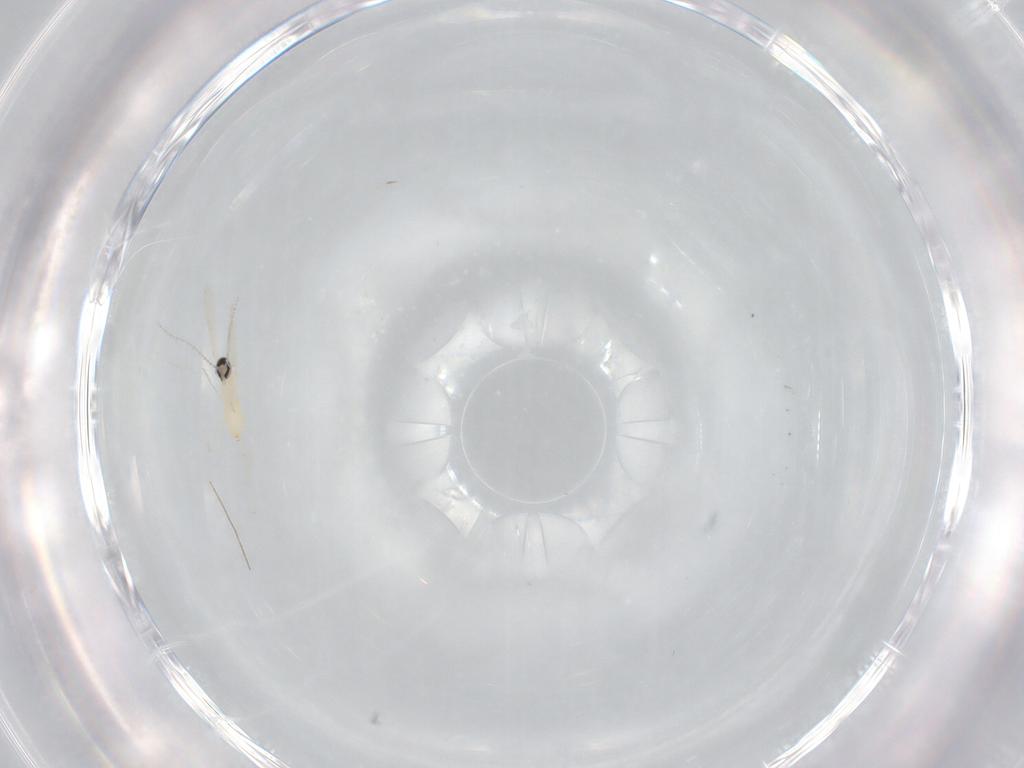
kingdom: Animalia
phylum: Arthropoda
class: Insecta
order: Diptera
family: Cecidomyiidae
